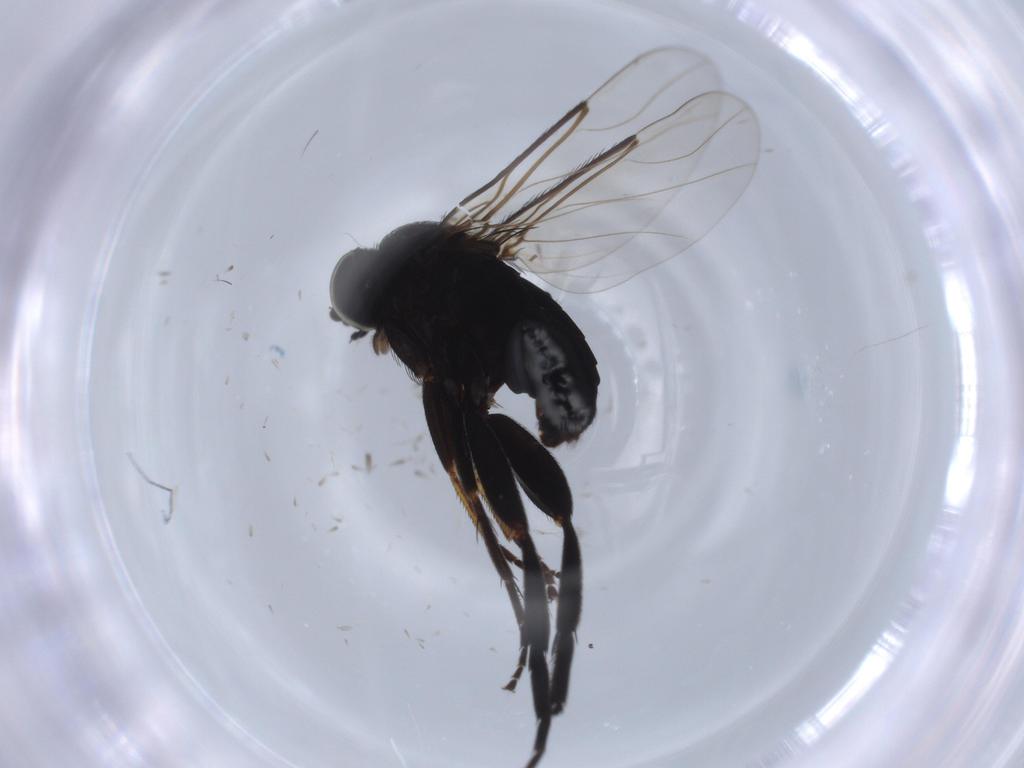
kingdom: Animalia
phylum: Arthropoda
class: Insecta
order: Diptera
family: Phoridae
